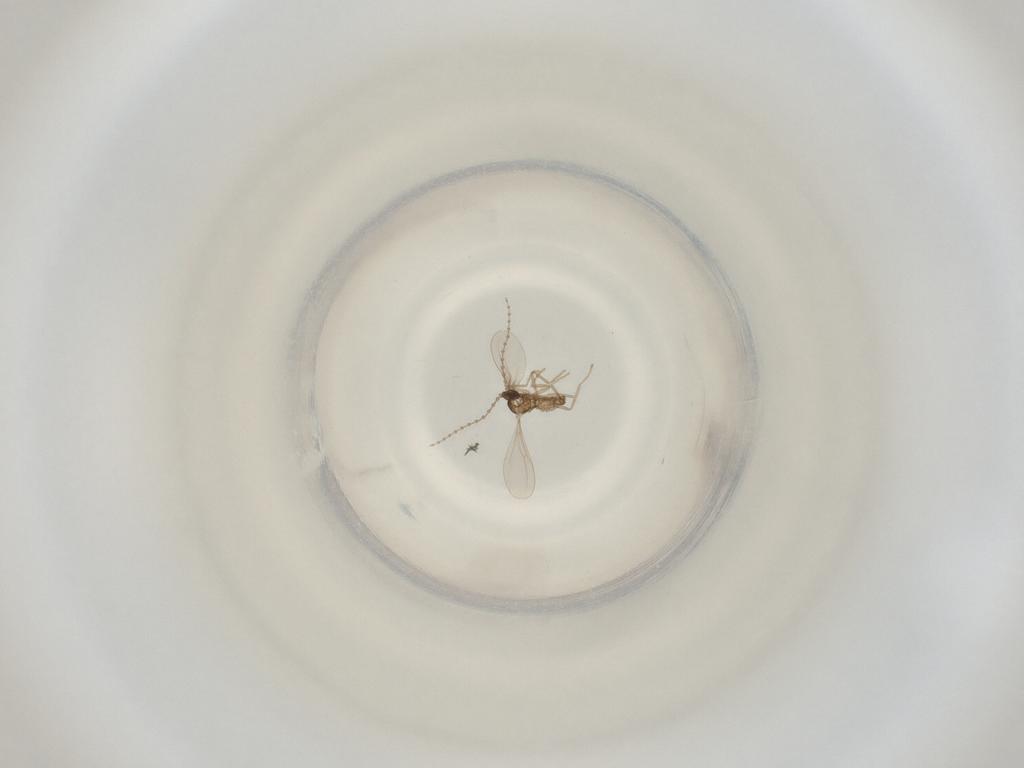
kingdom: Animalia
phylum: Arthropoda
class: Insecta
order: Diptera
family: Cecidomyiidae
